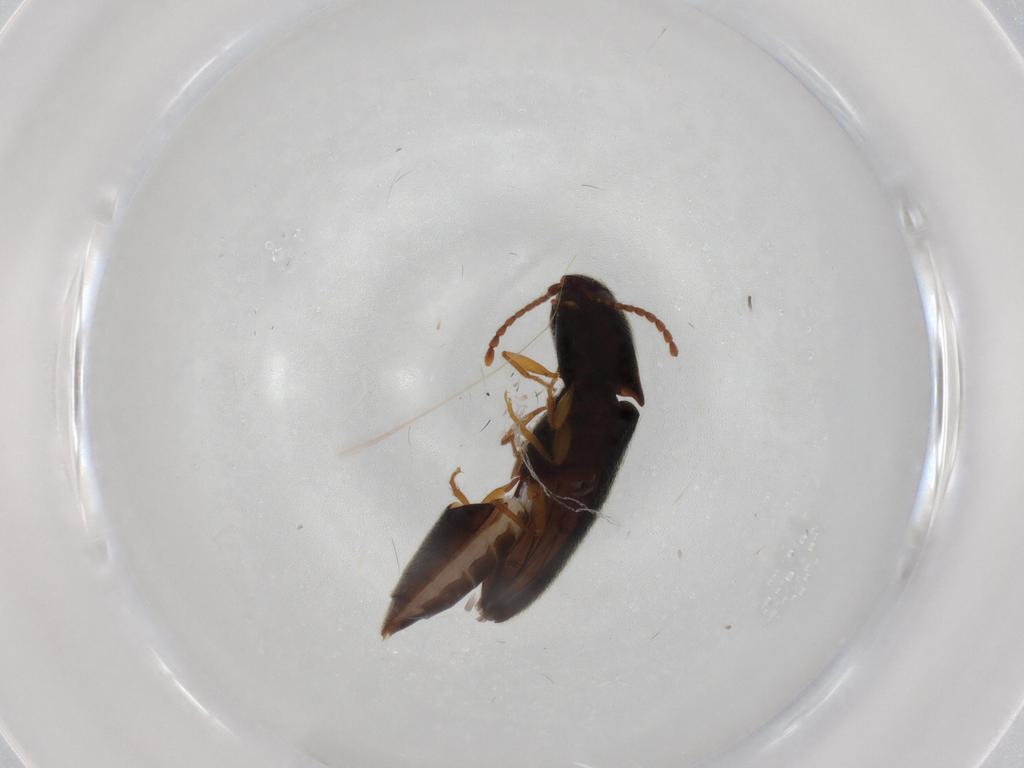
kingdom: Animalia
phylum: Arthropoda
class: Insecta
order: Coleoptera
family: Elateridae
